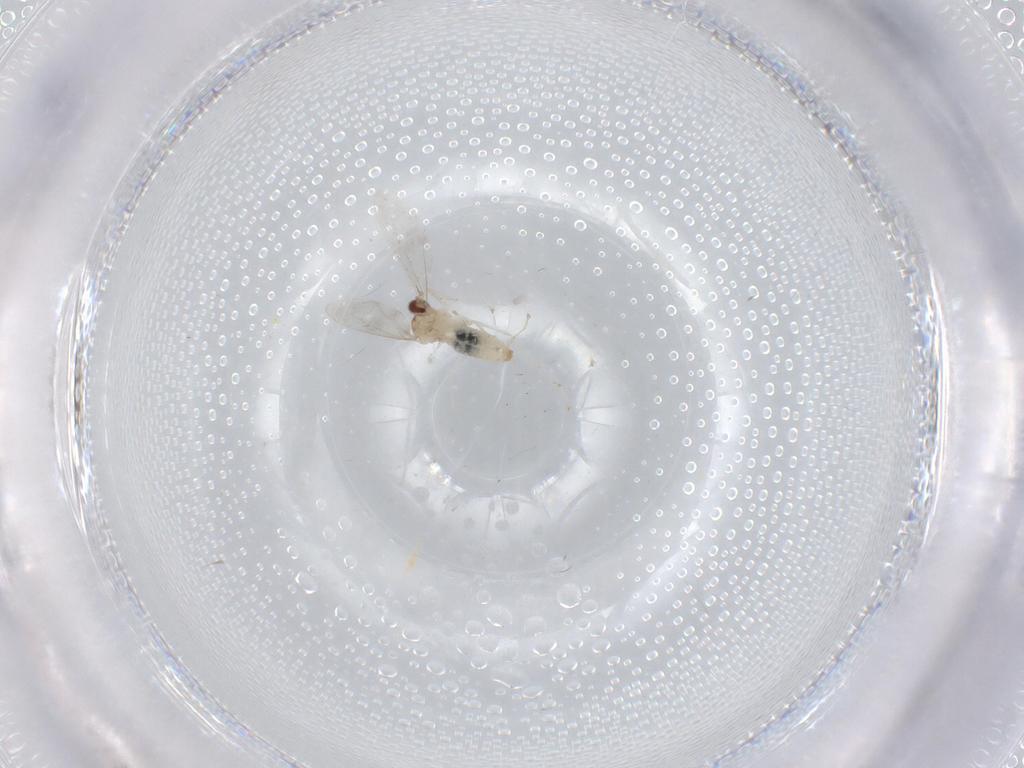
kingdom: Animalia
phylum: Arthropoda
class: Insecta
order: Diptera
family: Cecidomyiidae
